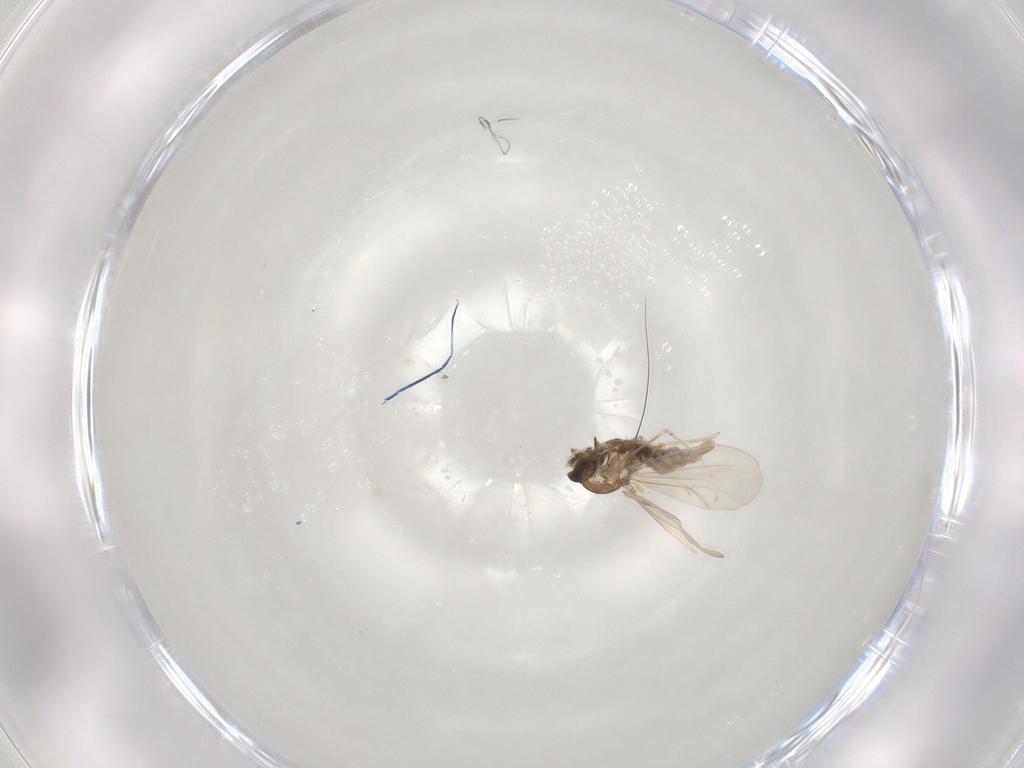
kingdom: Animalia
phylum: Arthropoda
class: Insecta
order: Diptera
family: Dolichopodidae
